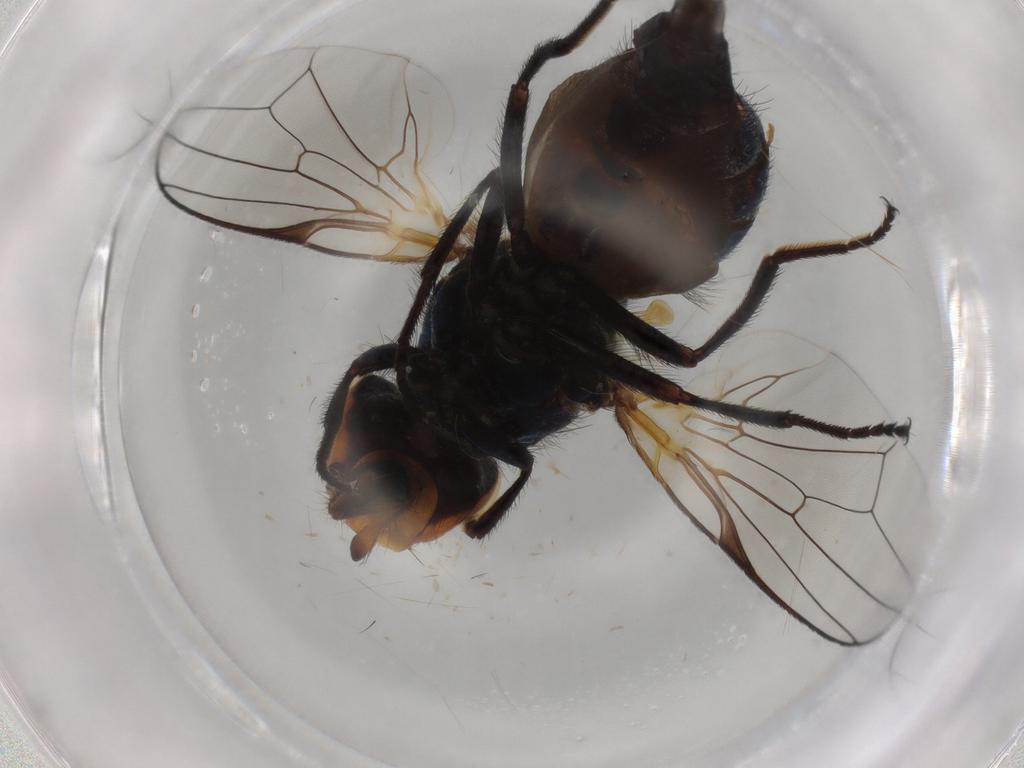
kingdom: Animalia
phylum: Arthropoda
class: Insecta
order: Diptera
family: Ulidiidae
